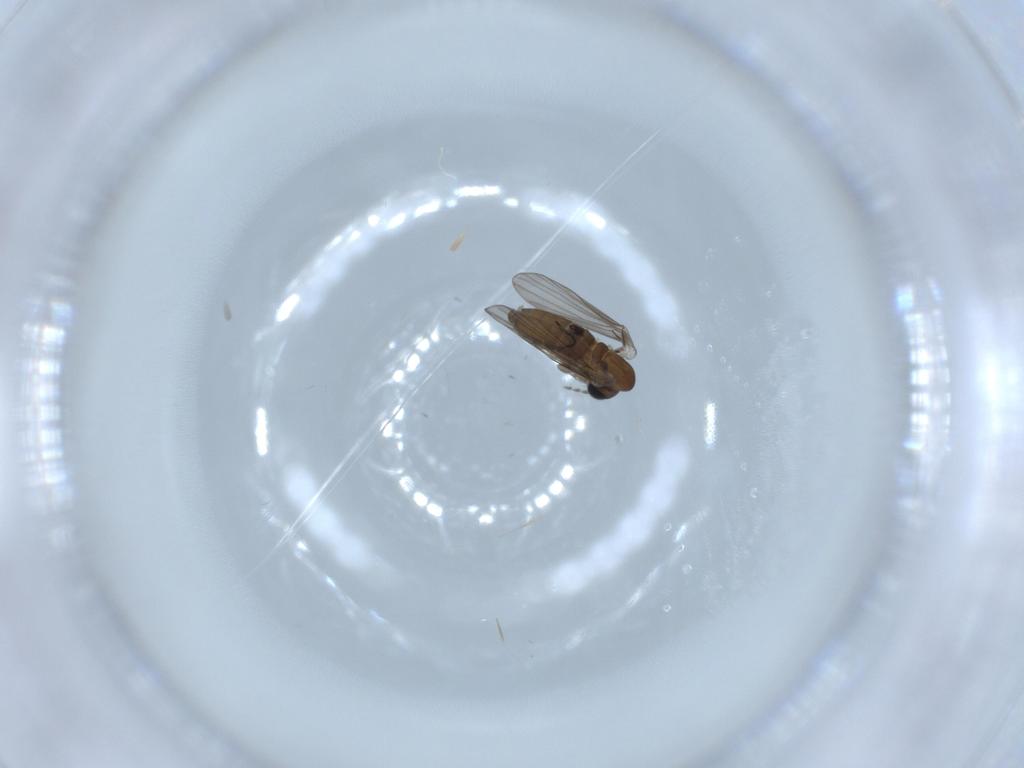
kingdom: Animalia
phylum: Arthropoda
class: Insecta
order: Diptera
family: Psychodidae
